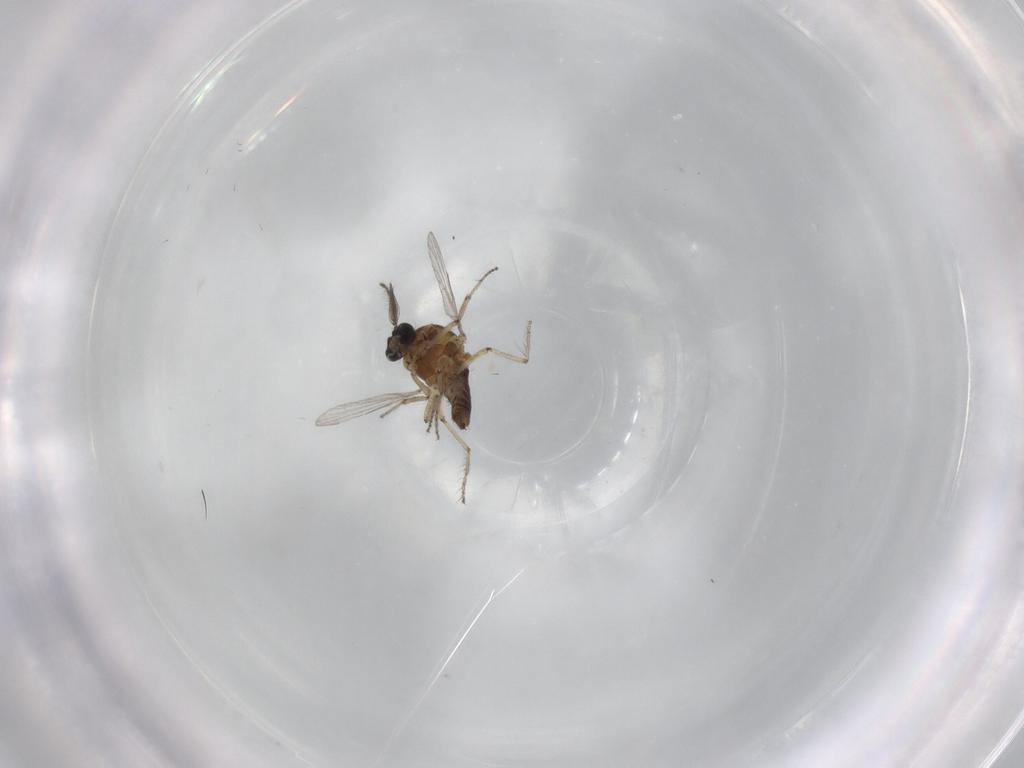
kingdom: Animalia
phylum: Arthropoda
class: Insecta
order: Diptera
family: Ceratopogonidae
